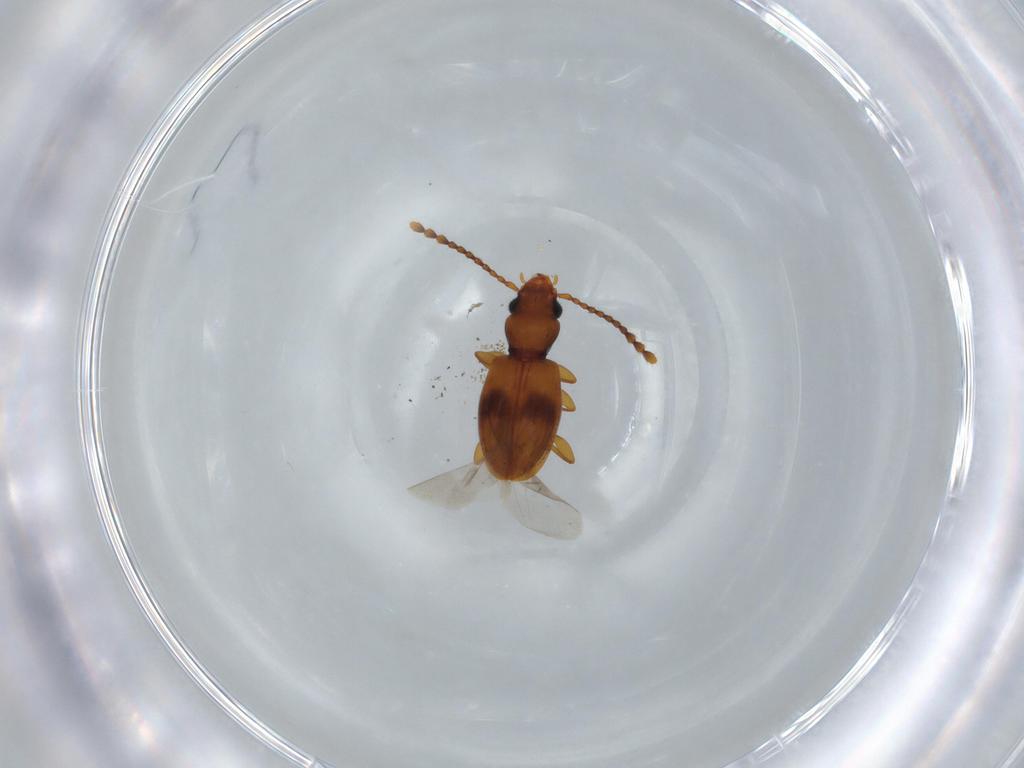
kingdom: Animalia
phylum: Arthropoda
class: Insecta
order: Coleoptera
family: Laemophloeidae
